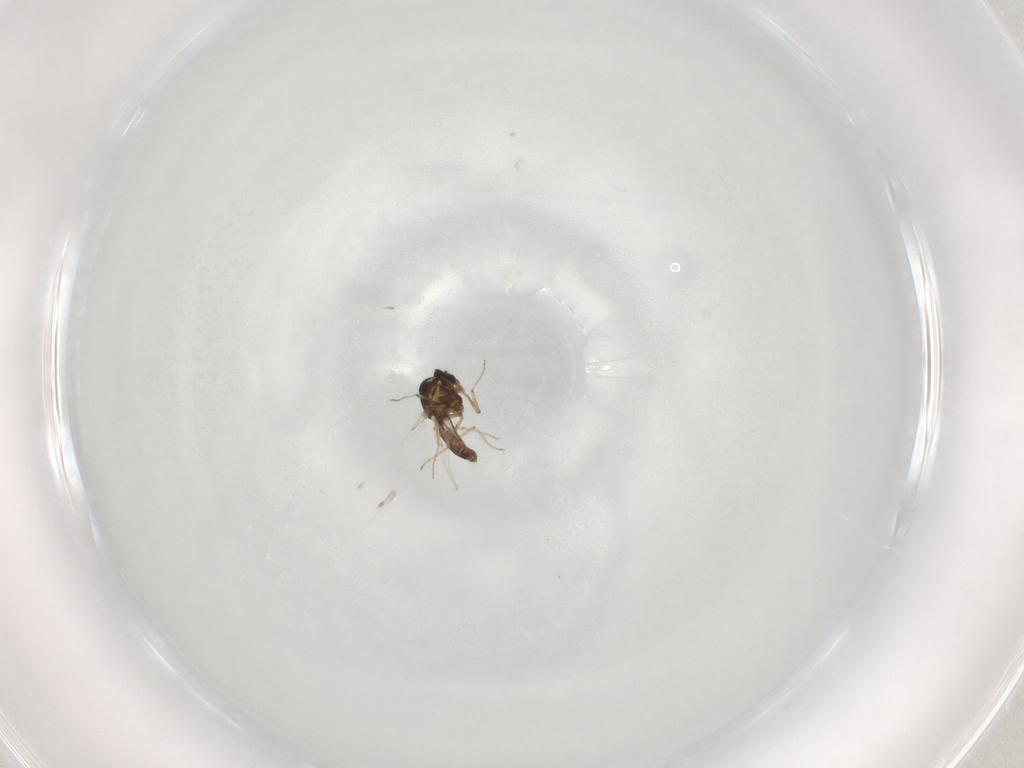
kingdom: Animalia
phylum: Arthropoda
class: Insecta
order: Diptera
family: Ceratopogonidae
